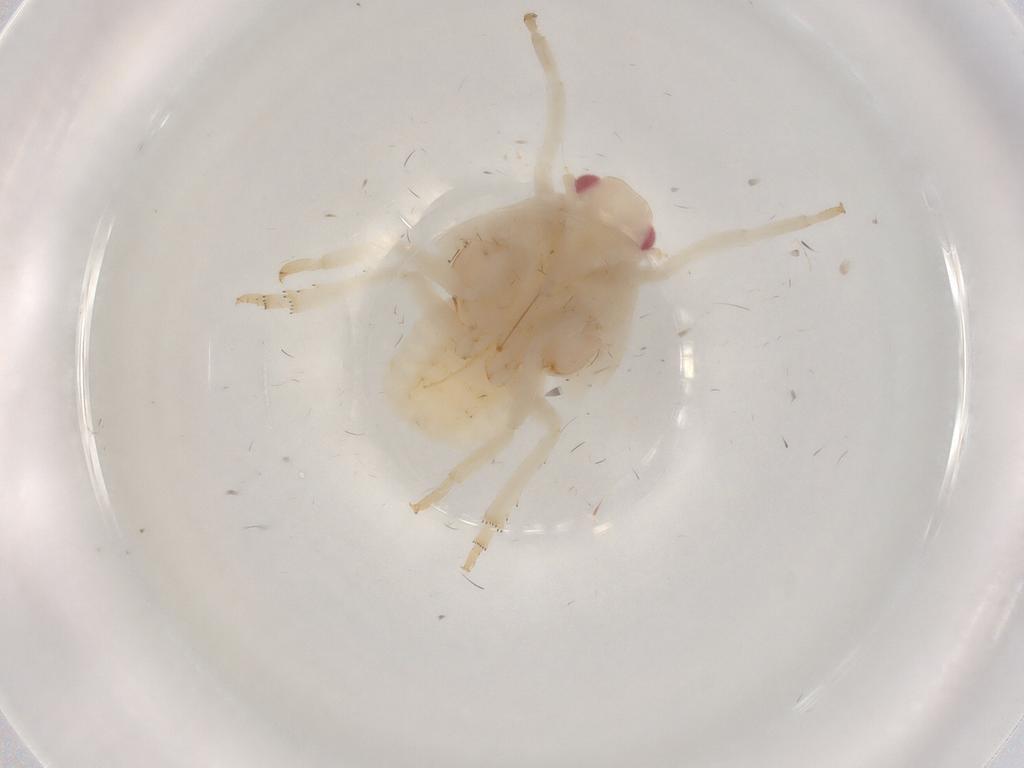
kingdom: Animalia
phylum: Arthropoda
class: Insecta
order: Hemiptera
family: Flatidae
